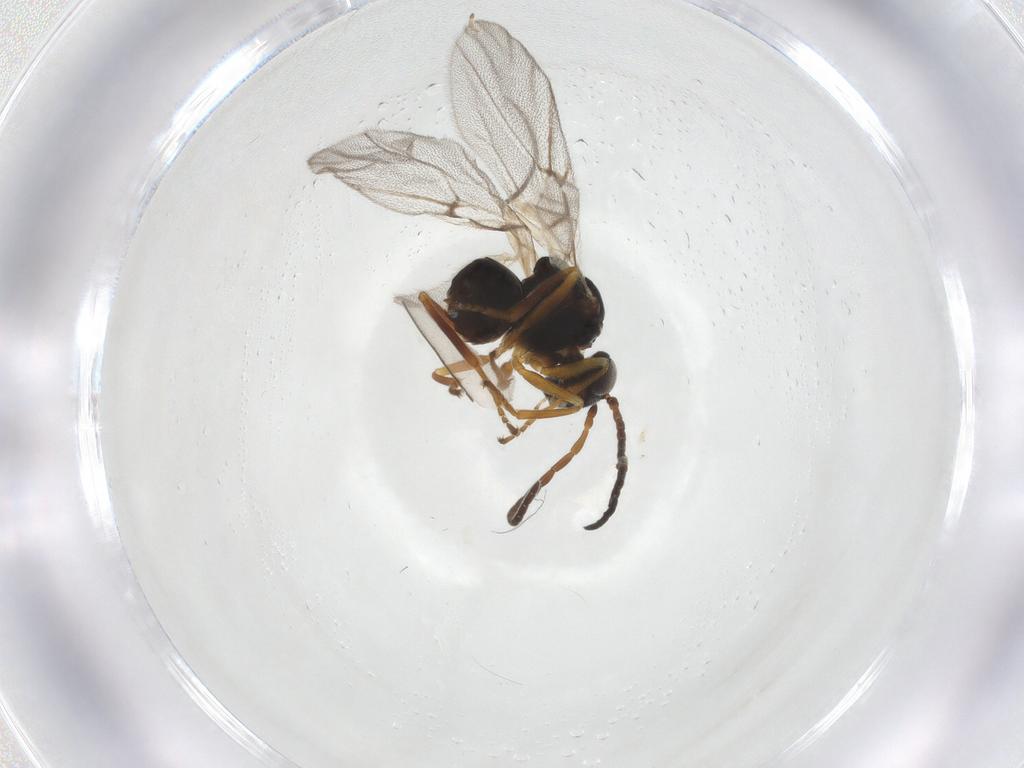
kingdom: Animalia
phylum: Arthropoda
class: Insecta
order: Hymenoptera
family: Cynipidae
